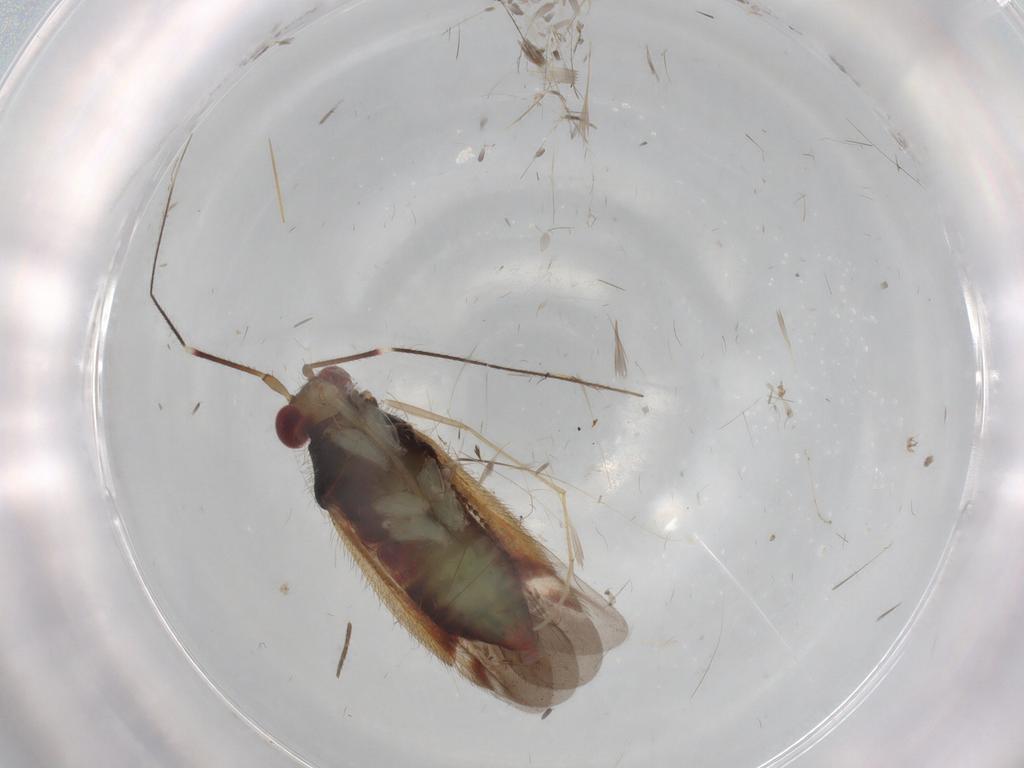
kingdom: Animalia
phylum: Arthropoda
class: Insecta
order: Hemiptera
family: Miridae
